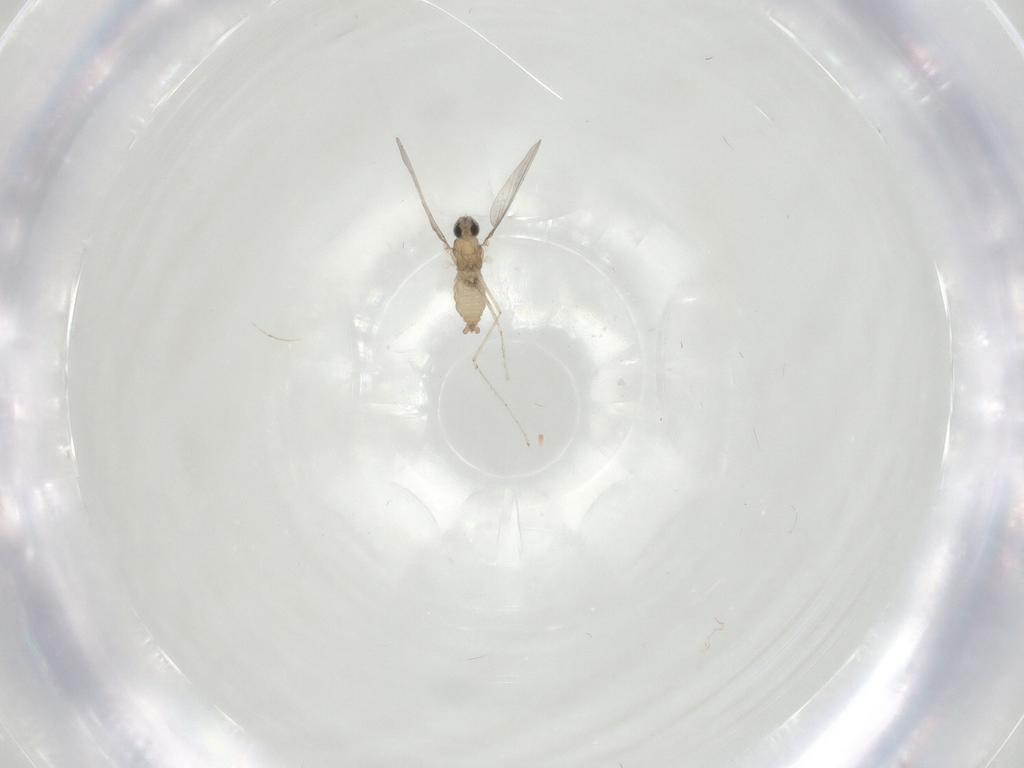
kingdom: Animalia
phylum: Arthropoda
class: Insecta
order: Diptera
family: Cecidomyiidae
